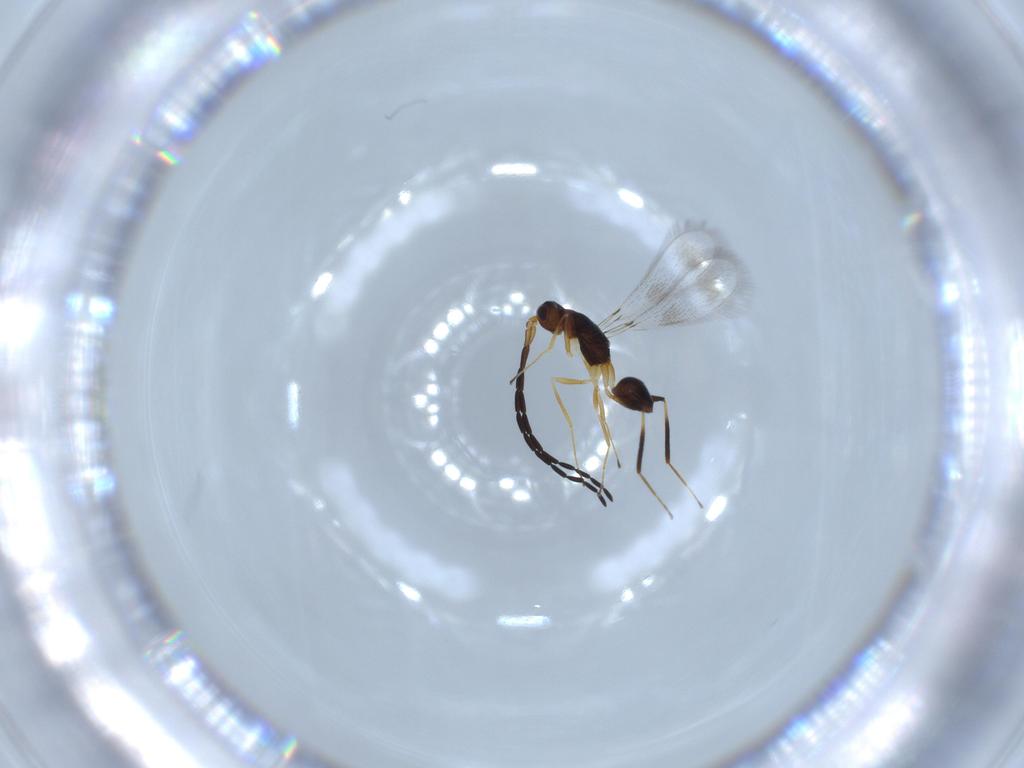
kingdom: Animalia
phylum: Arthropoda
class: Insecta
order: Hymenoptera
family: Mymaridae
